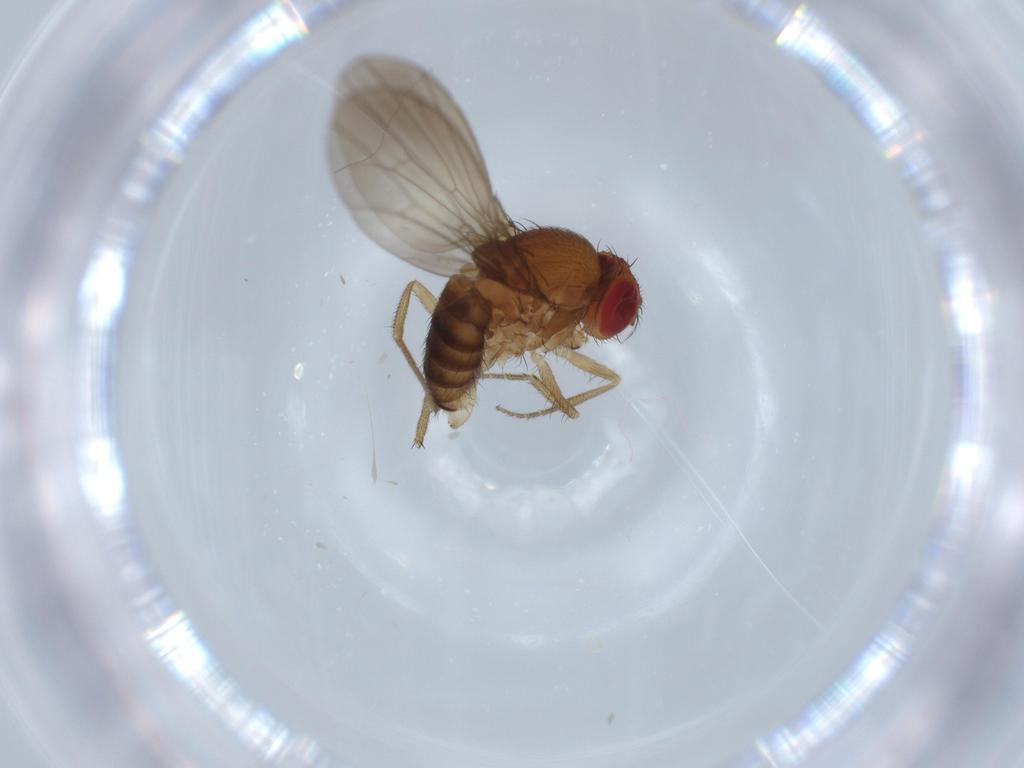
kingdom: Animalia
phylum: Arthropoda
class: Insecta
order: Diptera
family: Drosophilidae
